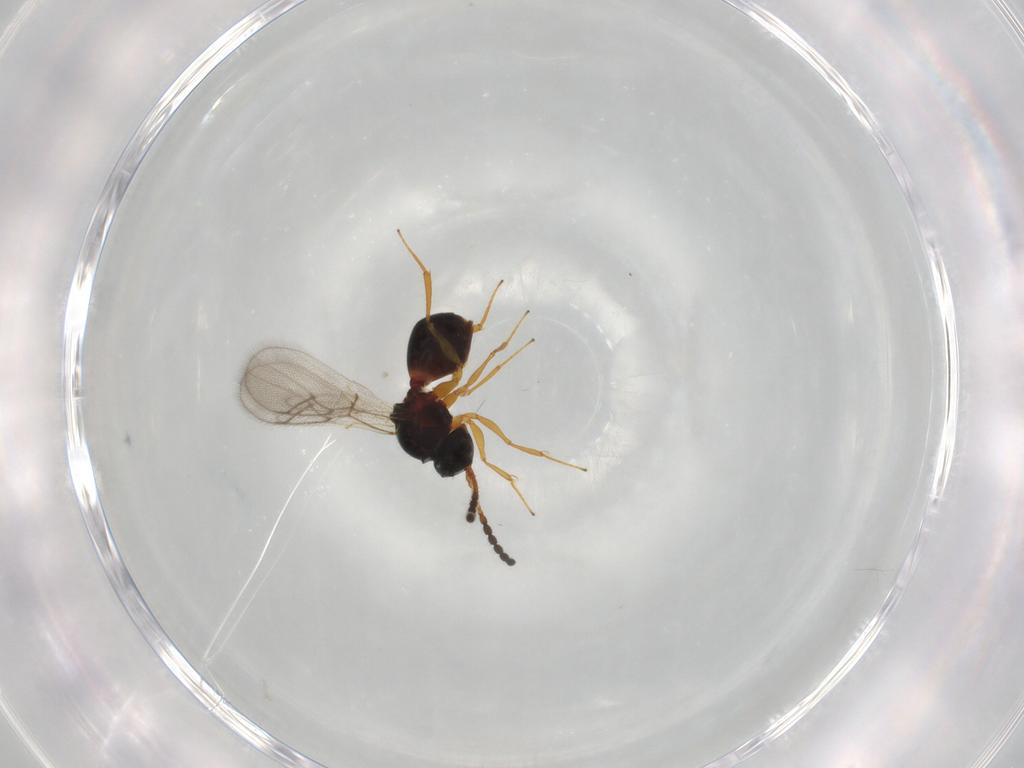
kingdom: Animalia
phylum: Arthropoda
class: Insecta
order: Hymenoptera
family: Figitidae
